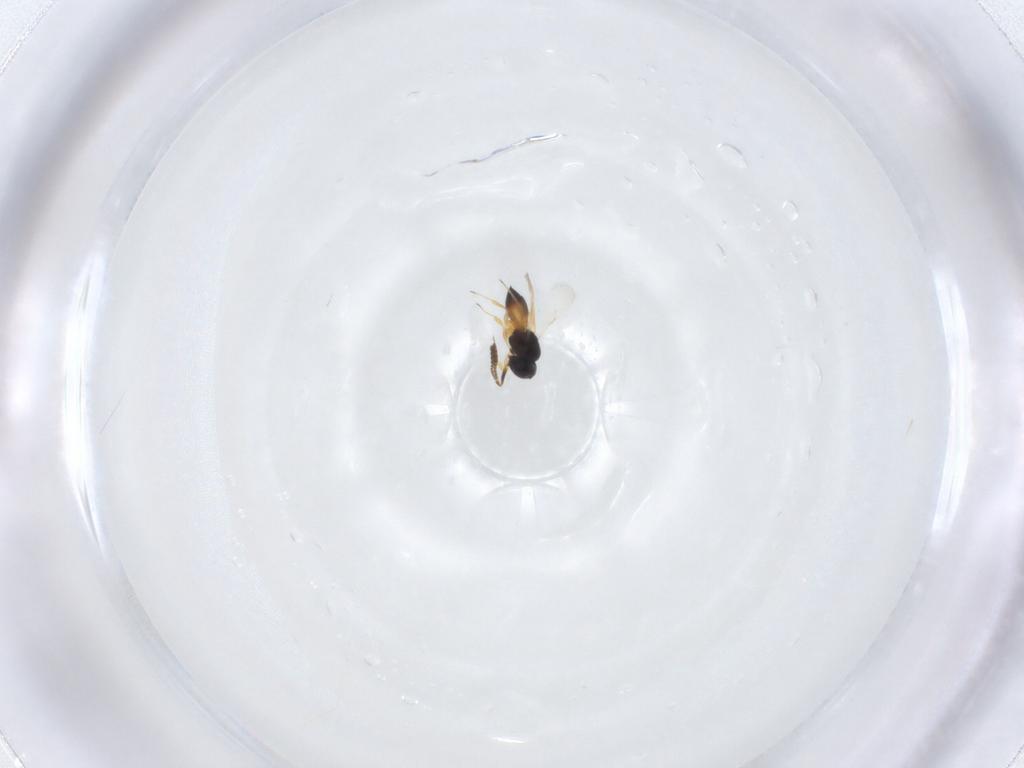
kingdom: Animalia
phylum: Arthropoda
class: Insecta
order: Hymenoptera
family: Scelionidae
